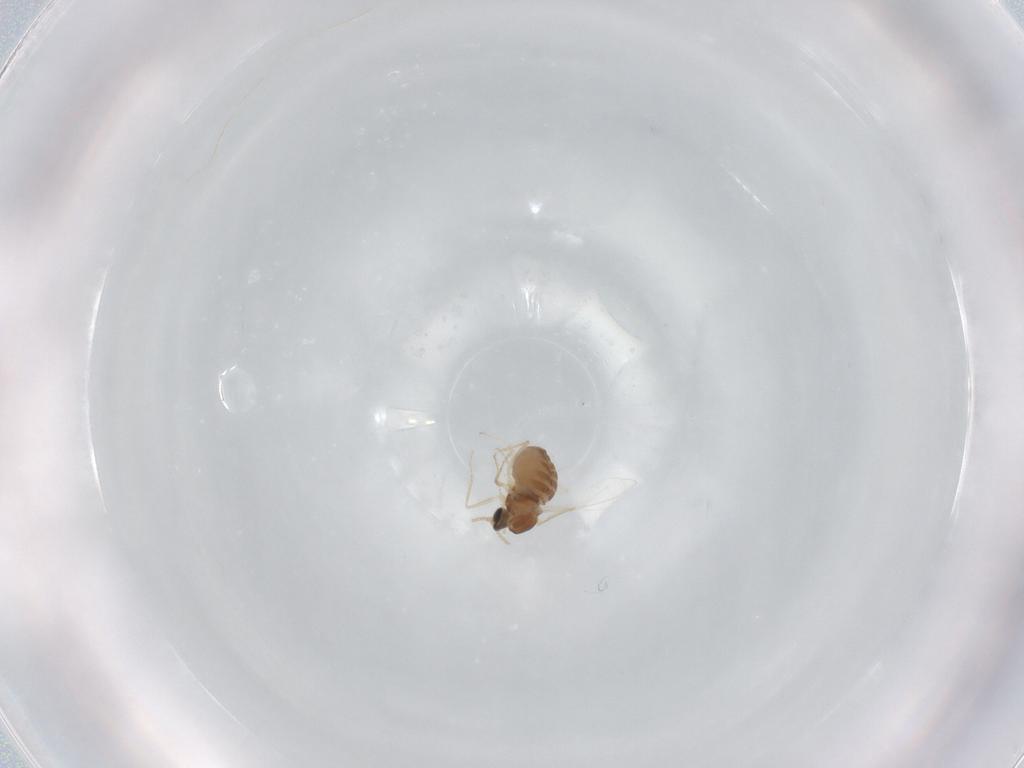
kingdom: Animalia
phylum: Arthropoda
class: Insecta
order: Diptera
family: Cecidomyiidae
